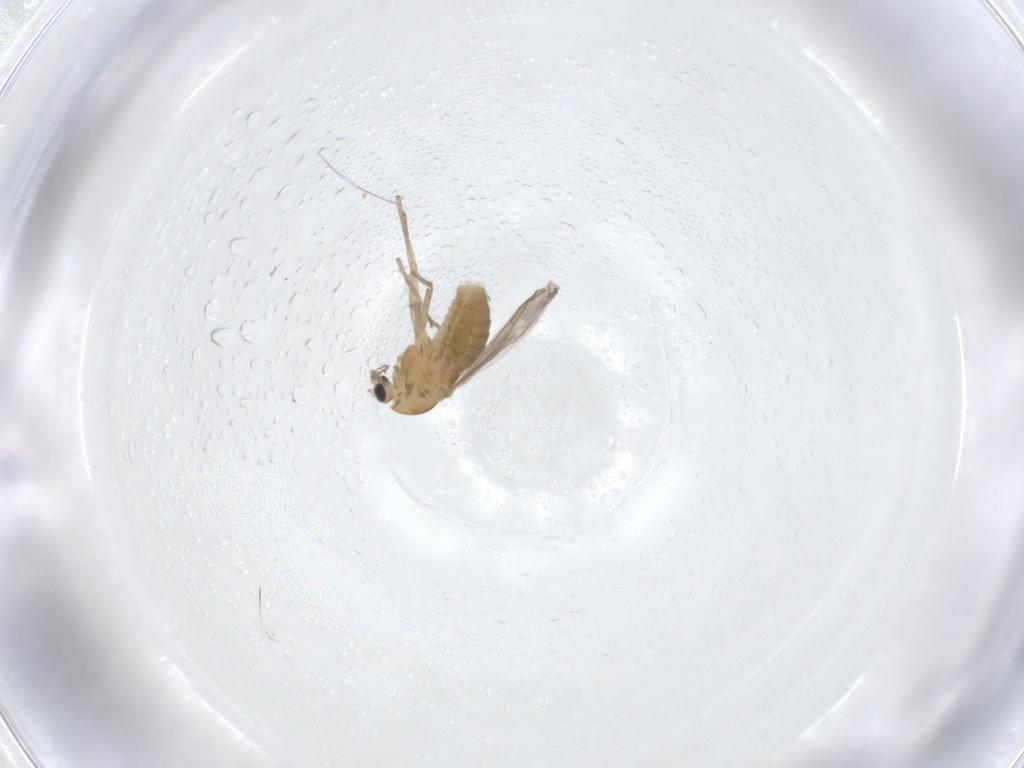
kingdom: Animalia
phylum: Arthropoda
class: Insecta
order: Diptera
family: Chironomidae
